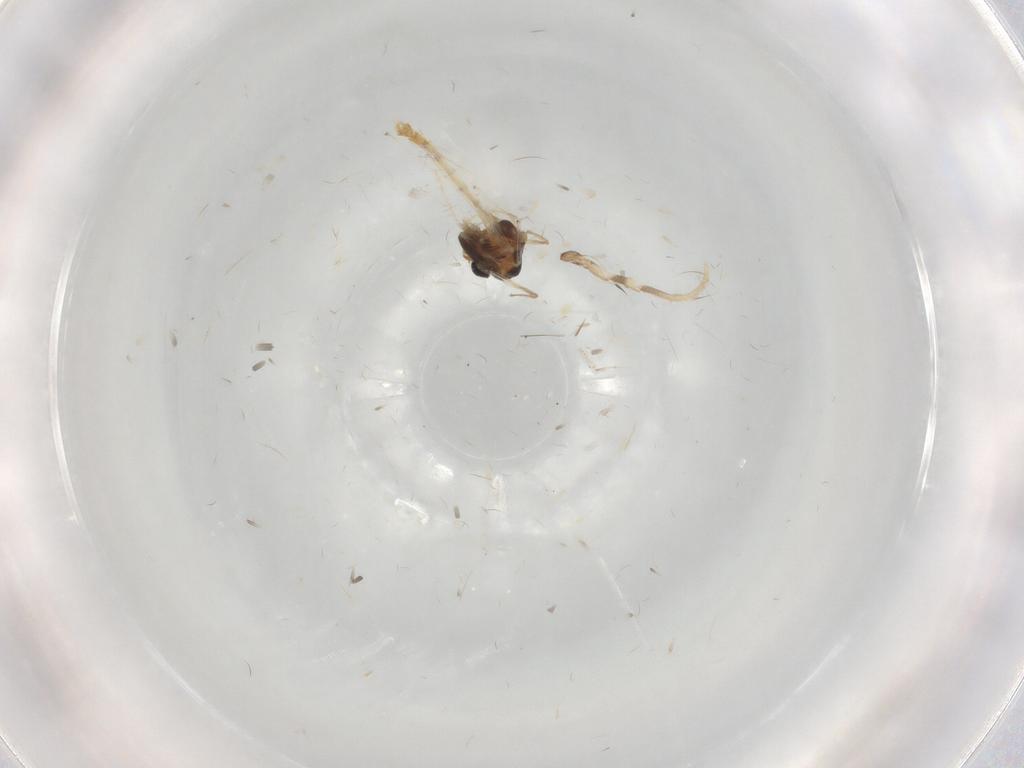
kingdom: Animalia
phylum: Arthropoda
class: Insecta
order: Diptera
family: Chironomidae
